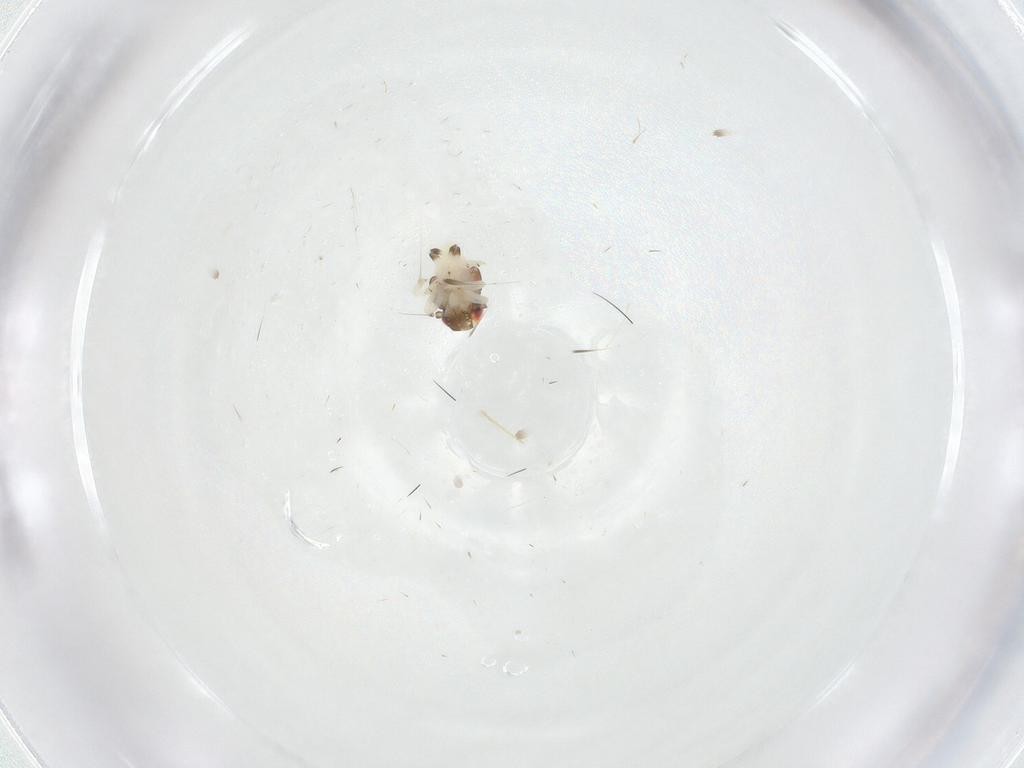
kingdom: Animalia
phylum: Arthropoda
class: Insecta
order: Hemiptera
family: Nogodinidae
